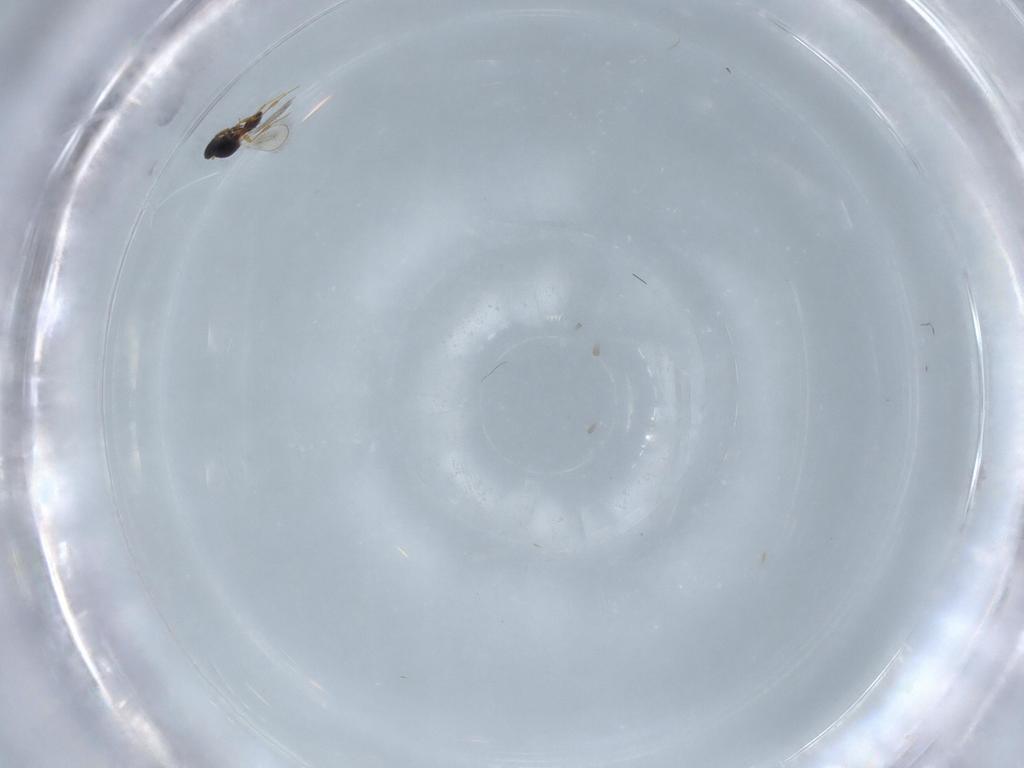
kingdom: Animalia
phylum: Arthropoda
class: Insecta
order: Hymenoptera
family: Platygastridae
